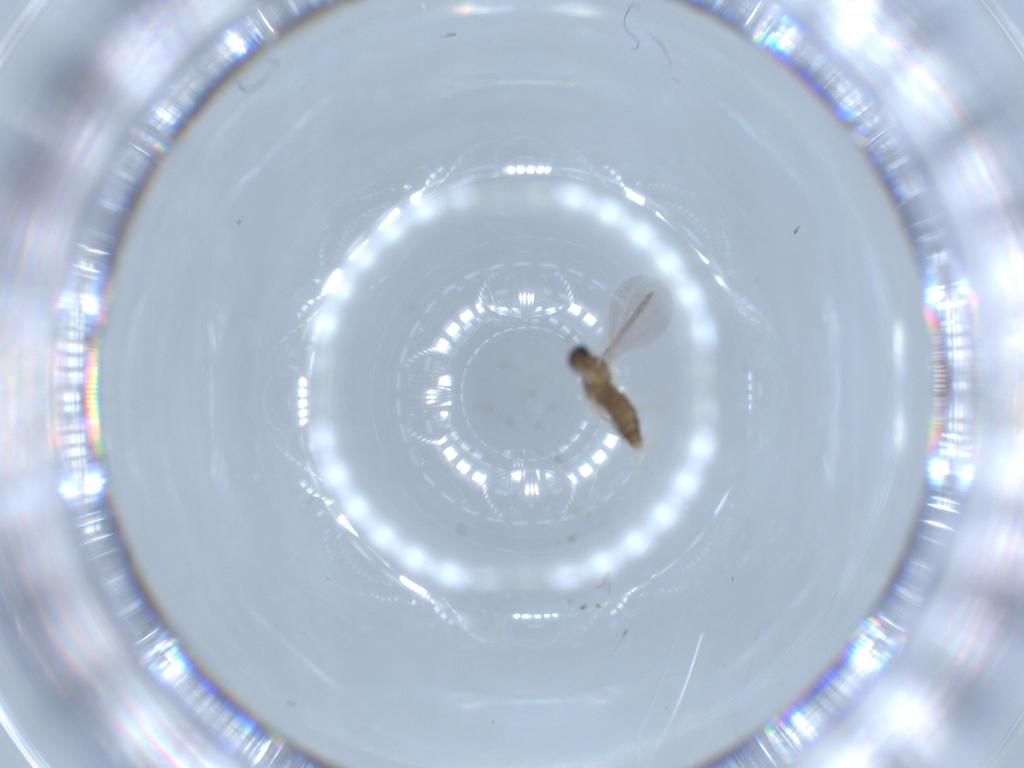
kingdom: Animalia
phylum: Arthropoda
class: Insecta
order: Diptera
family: Cecidomyiidae
